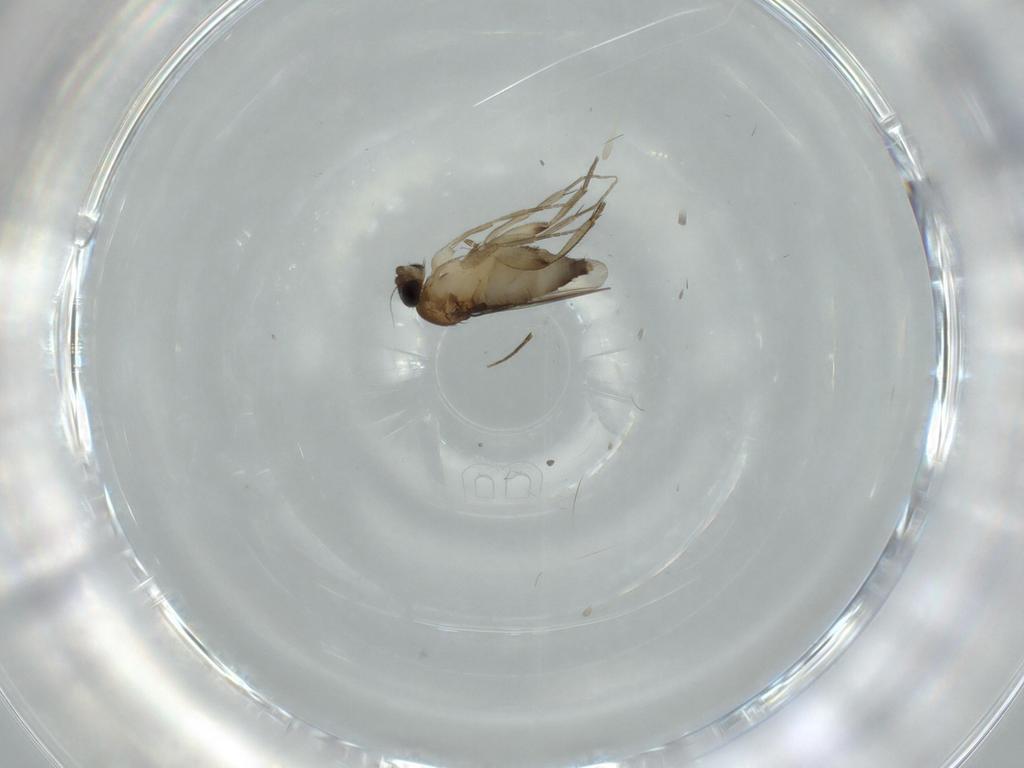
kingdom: Animalia
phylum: Arthropoda
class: Insecta
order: Diptera
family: Phoridae
